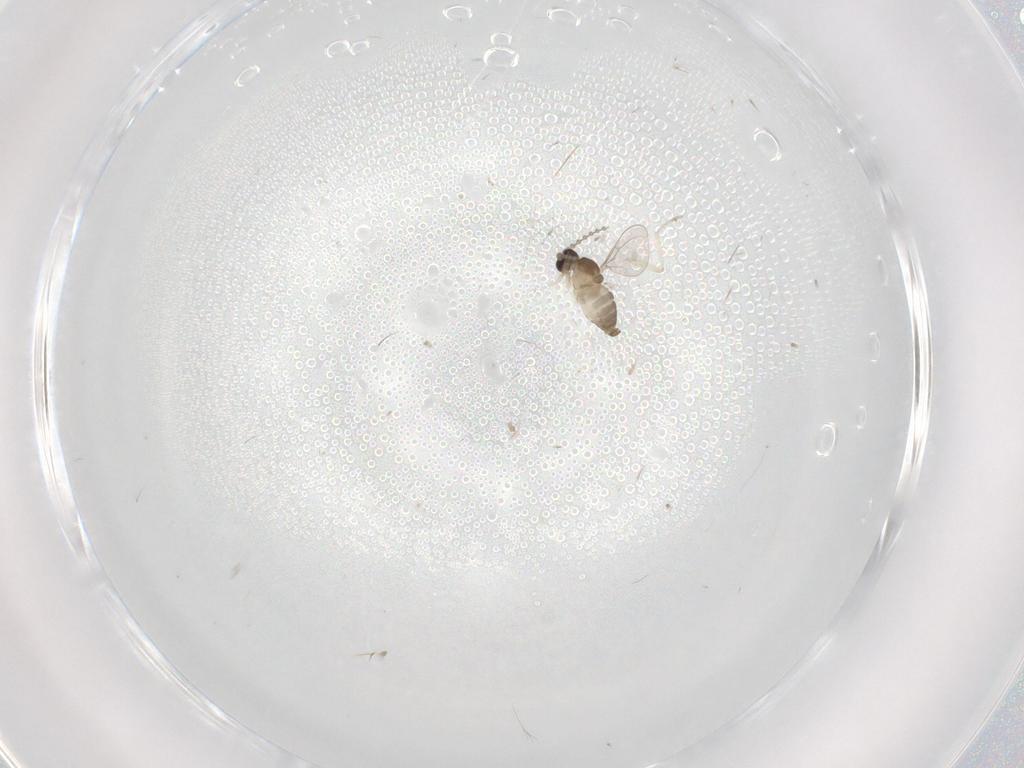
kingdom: Animalia
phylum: Arthropoda
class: Insecta
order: Diptera
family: Cecidomyiidae
